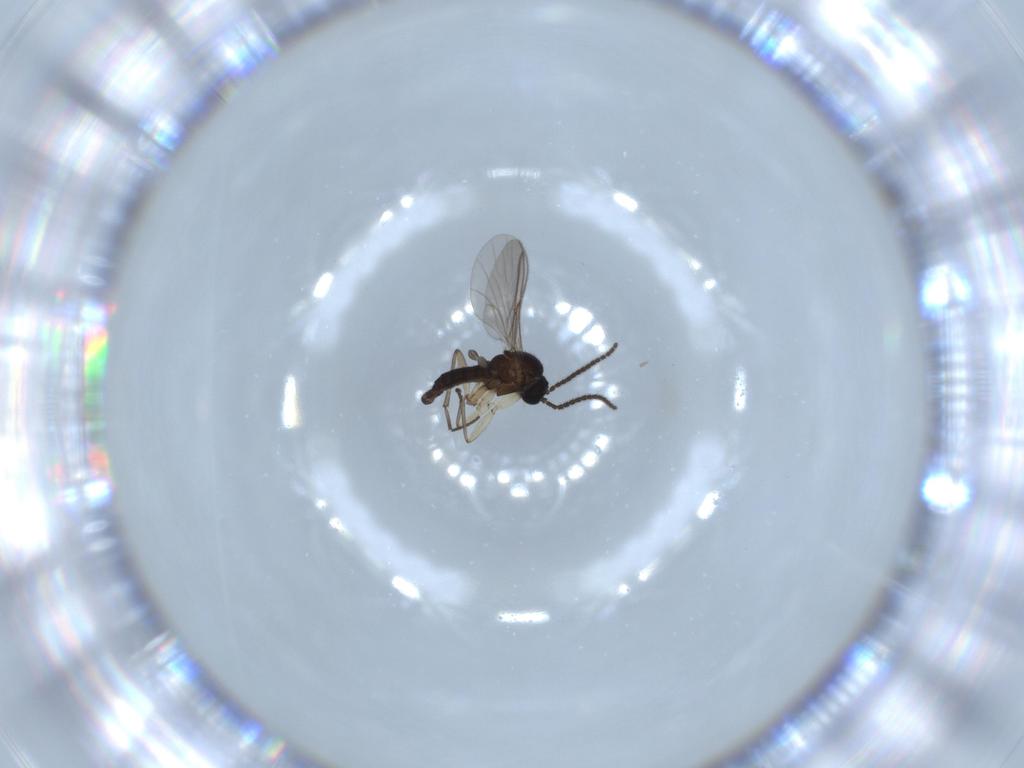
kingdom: Animalia
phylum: Arthropoda
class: Insecta
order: Diptera
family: Sciaridae
